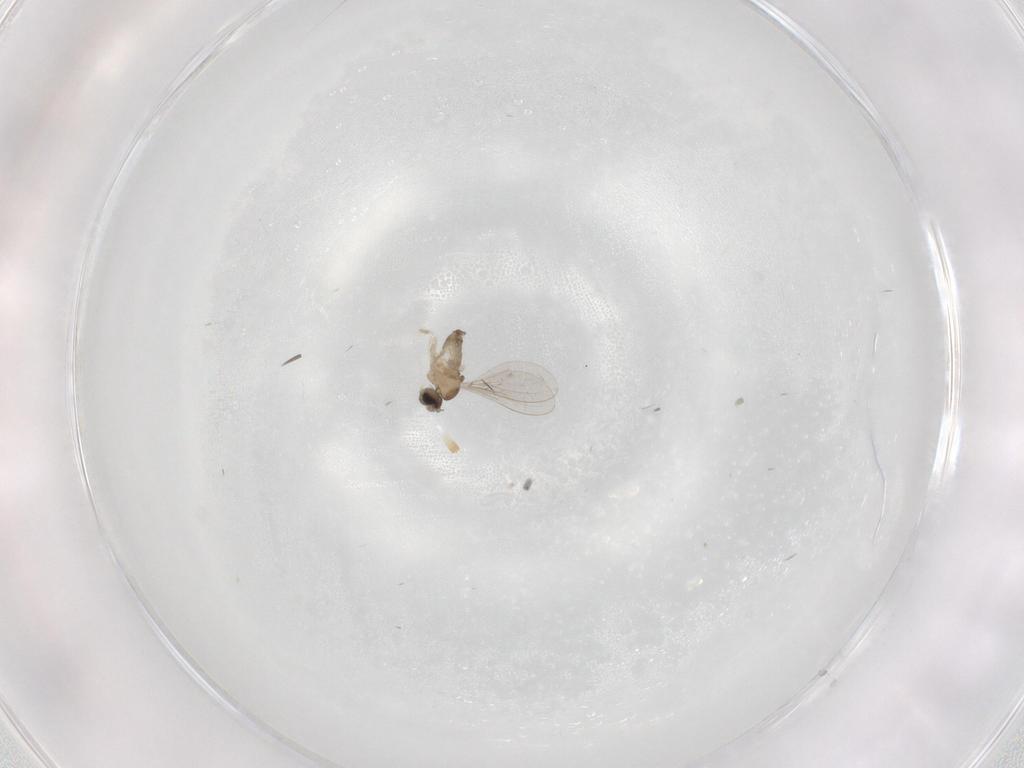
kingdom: Animalia
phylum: Arthropoda
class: Insecta
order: Diptera
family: Cecidomyiidae
